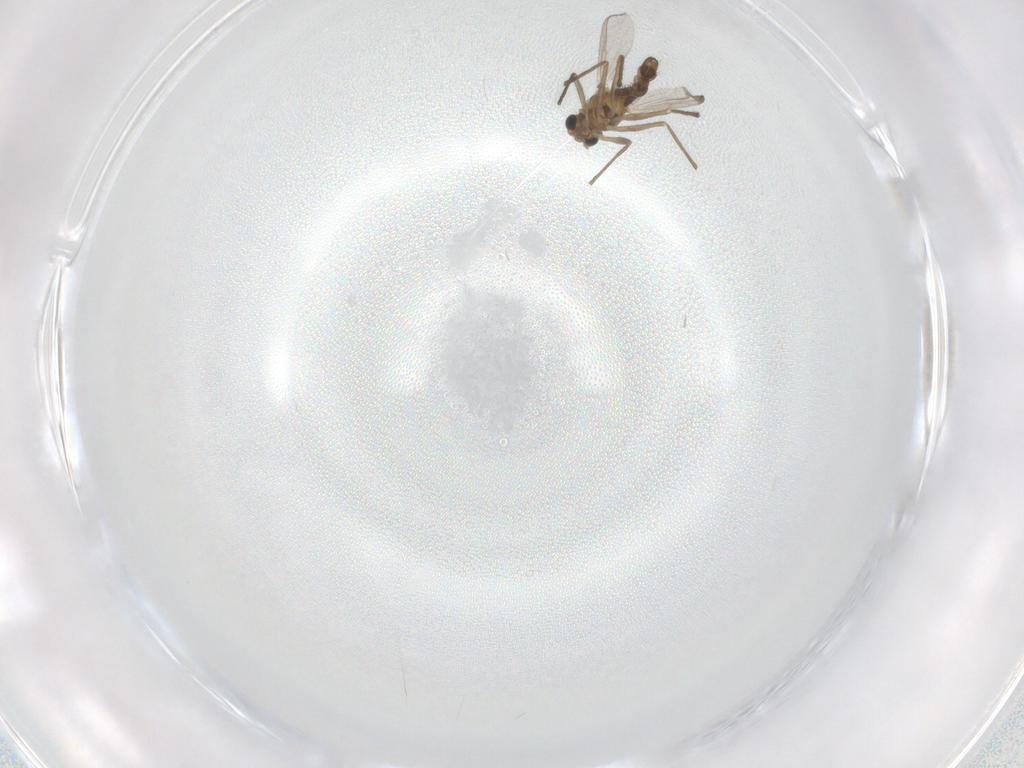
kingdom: Animalia
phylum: Arthropoda
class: Insecta
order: Diptera
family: Chironomidae
